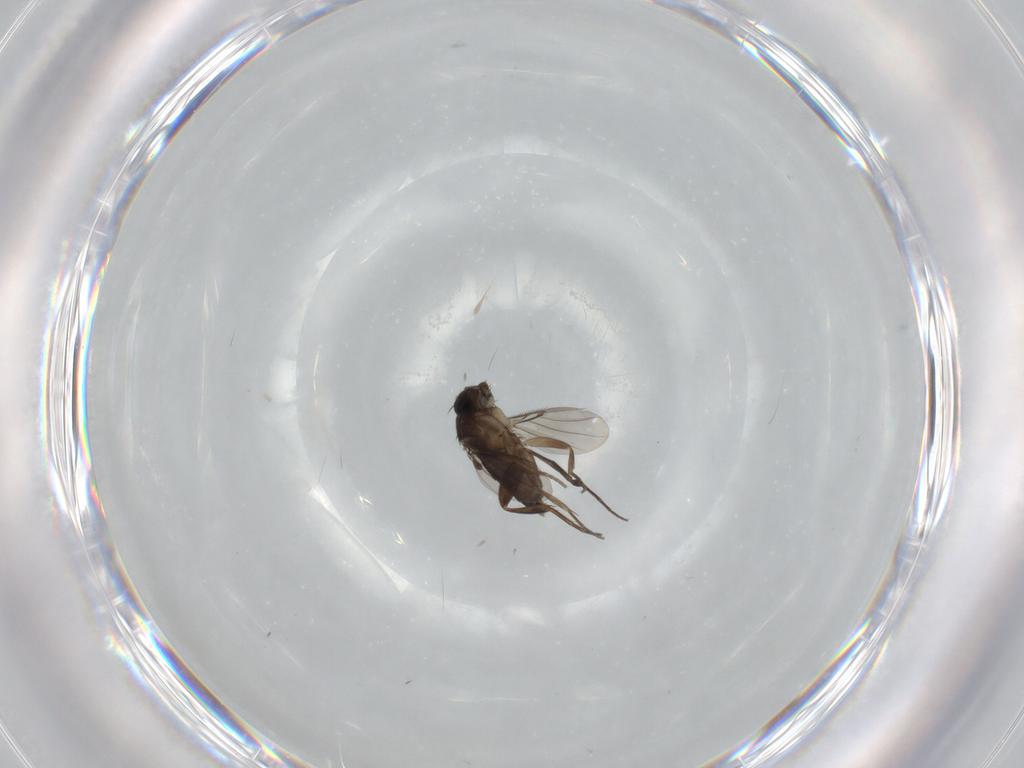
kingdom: Animalia
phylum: Arthropoda
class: Insecta
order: Diptera
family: Phoridae
